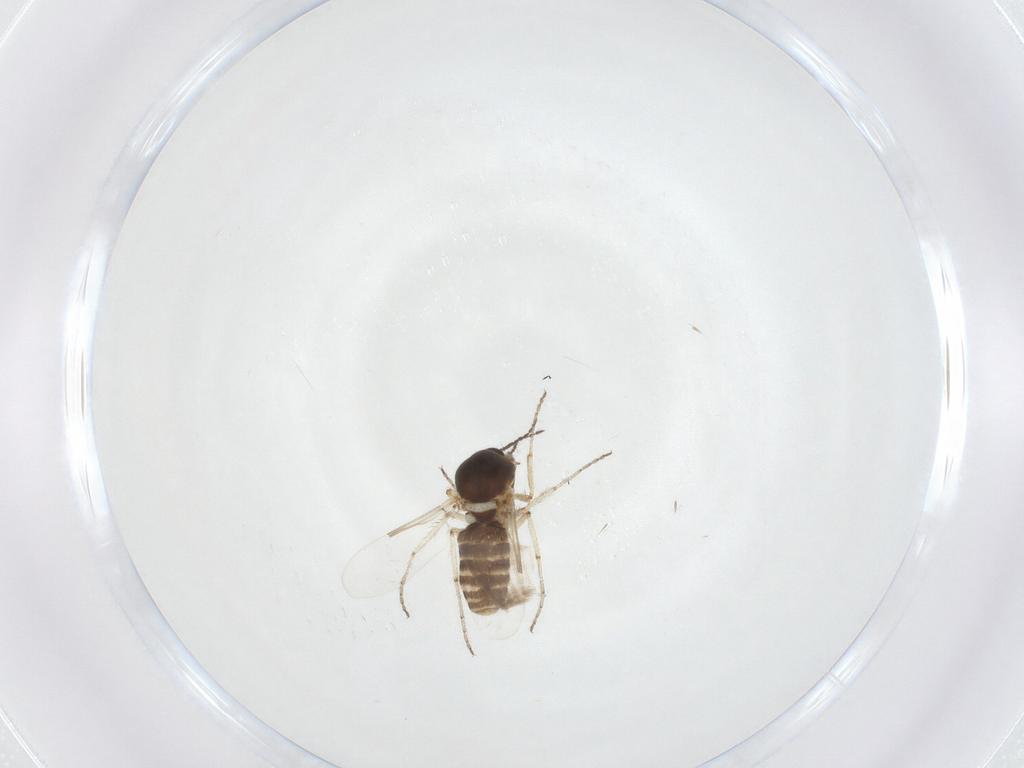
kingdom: Animalia
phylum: Arthropoda
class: Insecta
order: Diptera
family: Ceratopogonidae
